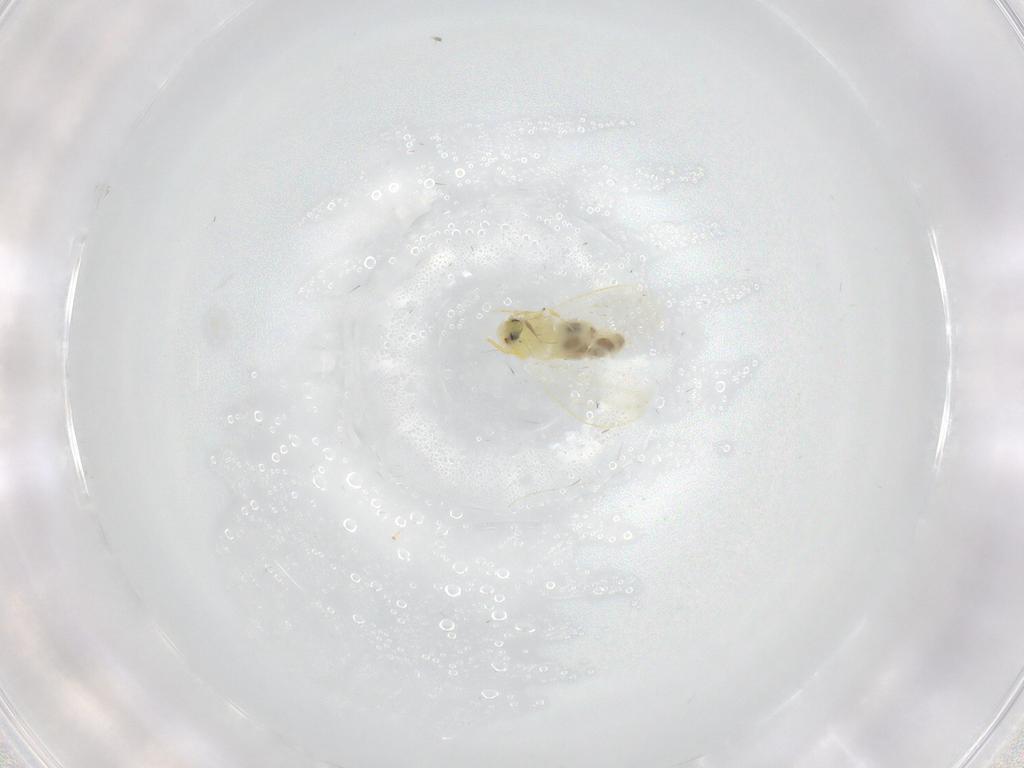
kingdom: Animalia
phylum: Arthropoda
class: Insecta
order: Hemiptera
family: Aleyrodidae
